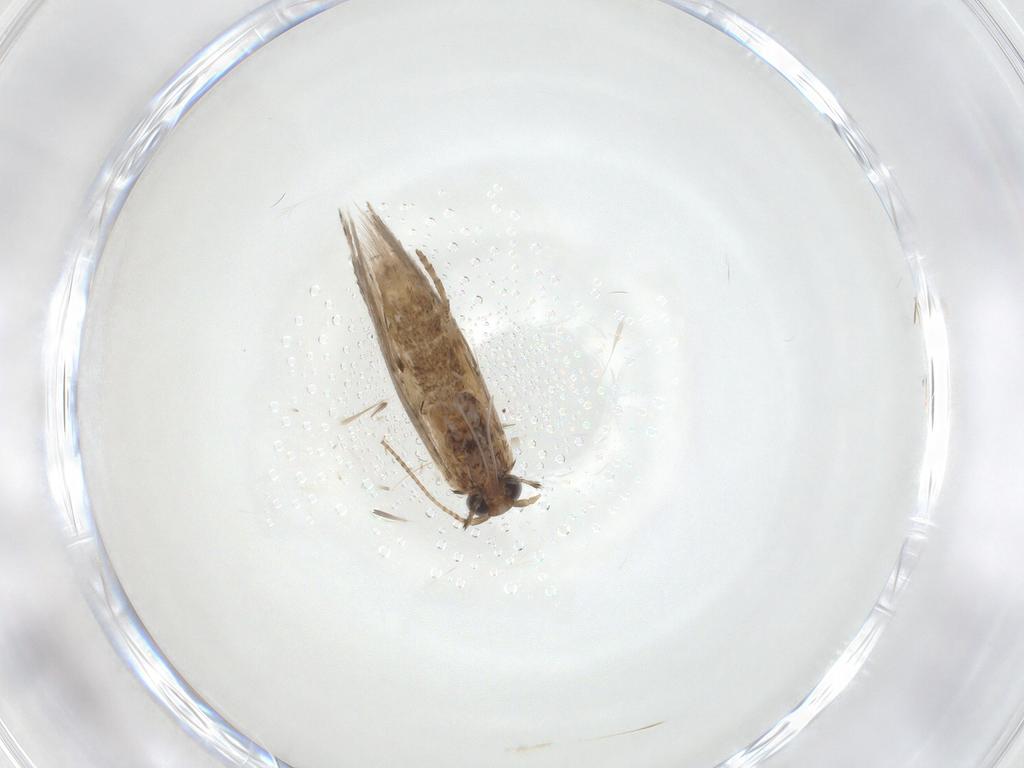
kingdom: Animalia
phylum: Arthropoda
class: Insecta
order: Lepidoptera
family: Gracillariidae
